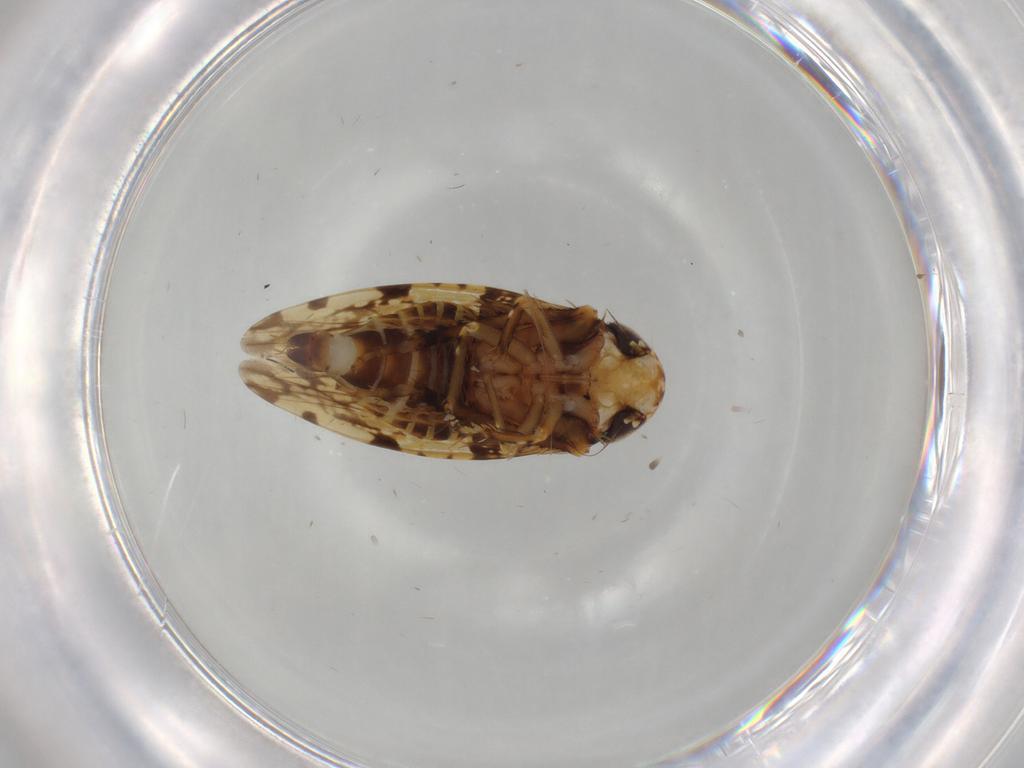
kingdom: Animalia
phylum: Arthropoda
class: Insecta
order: Hemiptera
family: Cicadellidae
